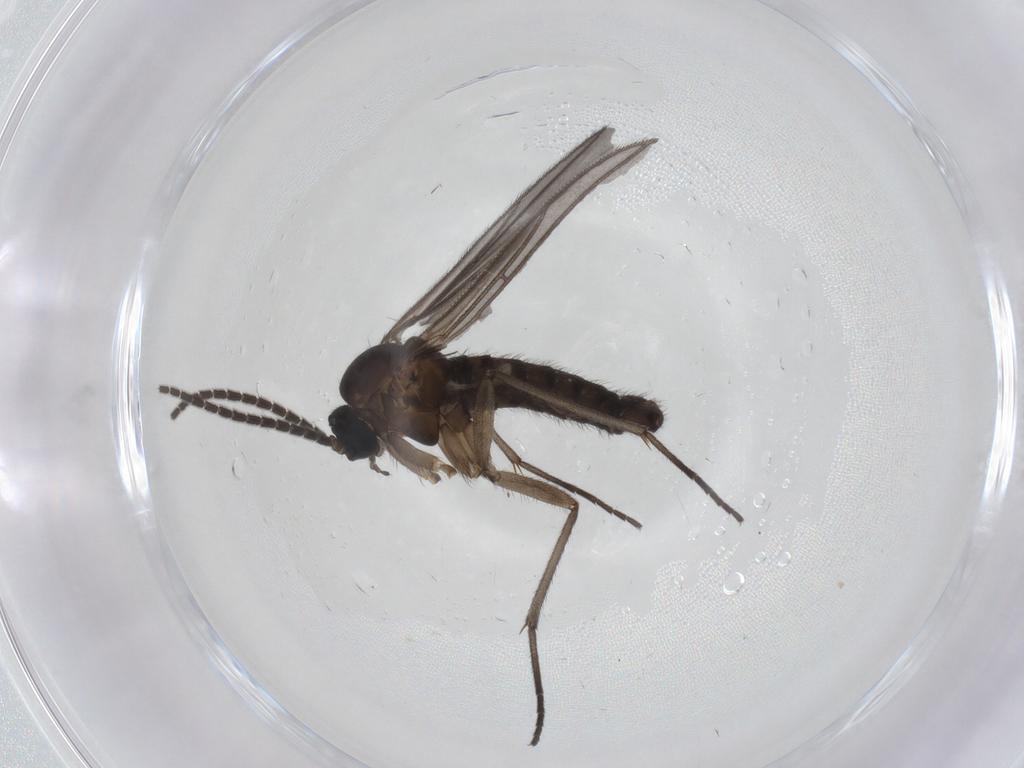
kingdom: Animalia
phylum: Arthropoda
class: Insecta
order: Diptera
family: Sciaridae
